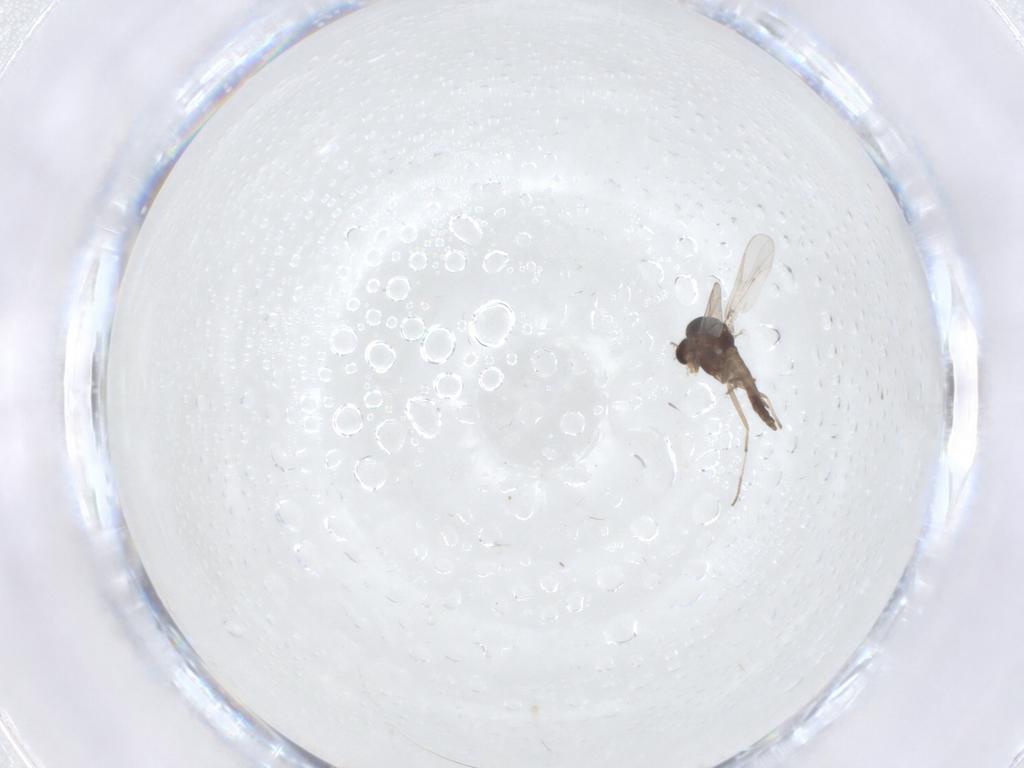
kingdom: Animalia
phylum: Arthropoda
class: Insecta
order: Diptera
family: Chironomidae
